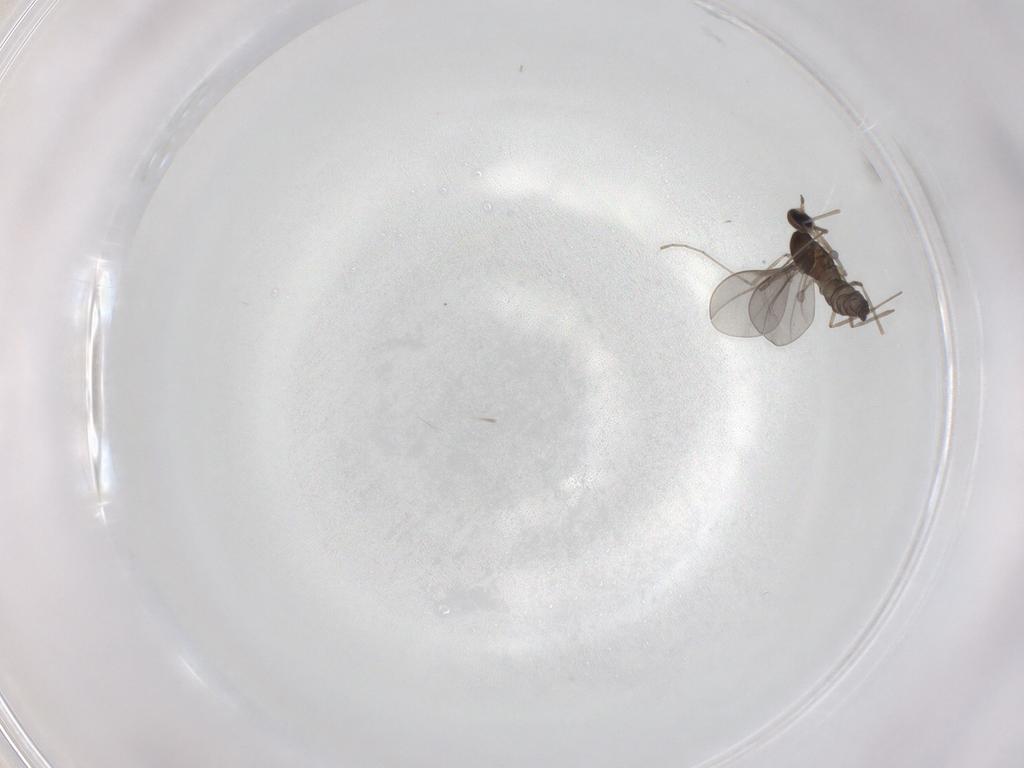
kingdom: Animalia
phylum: Arthropoda
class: Insecta
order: Diptera
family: Cecidomyiidae
